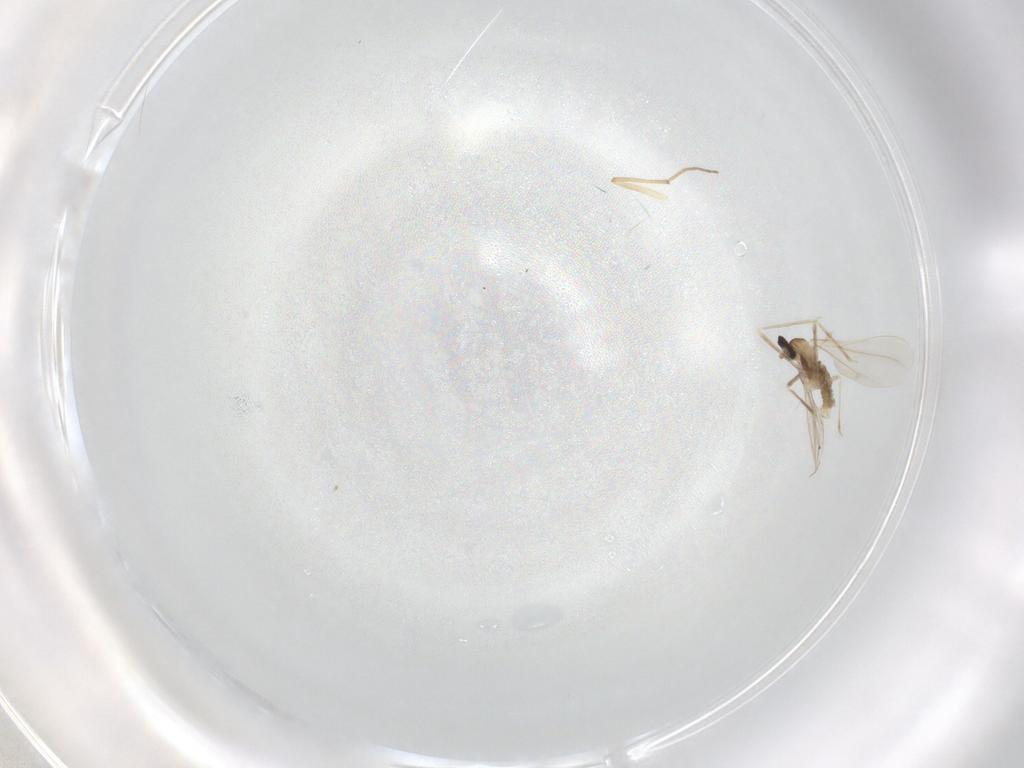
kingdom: Animalia
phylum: Arthropoda
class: Insecta
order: Diptera
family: Cecidomyiidae
